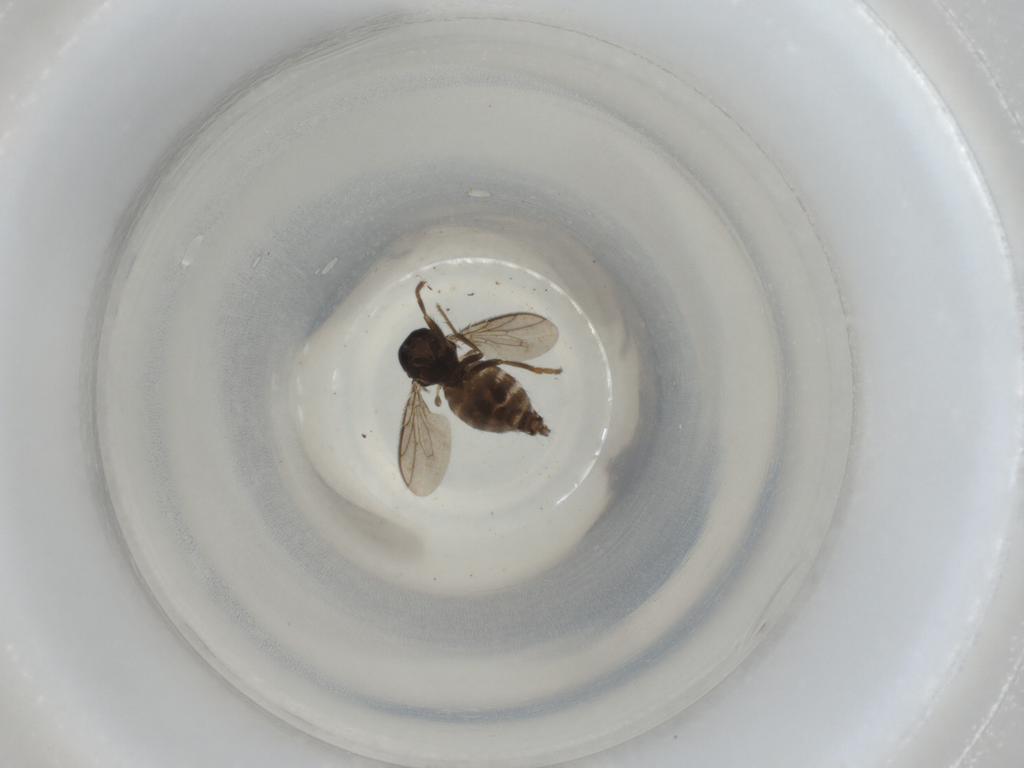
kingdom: Animalia
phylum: Arthropoda
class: Insecta
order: Diptera
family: Sphaeroceridae
